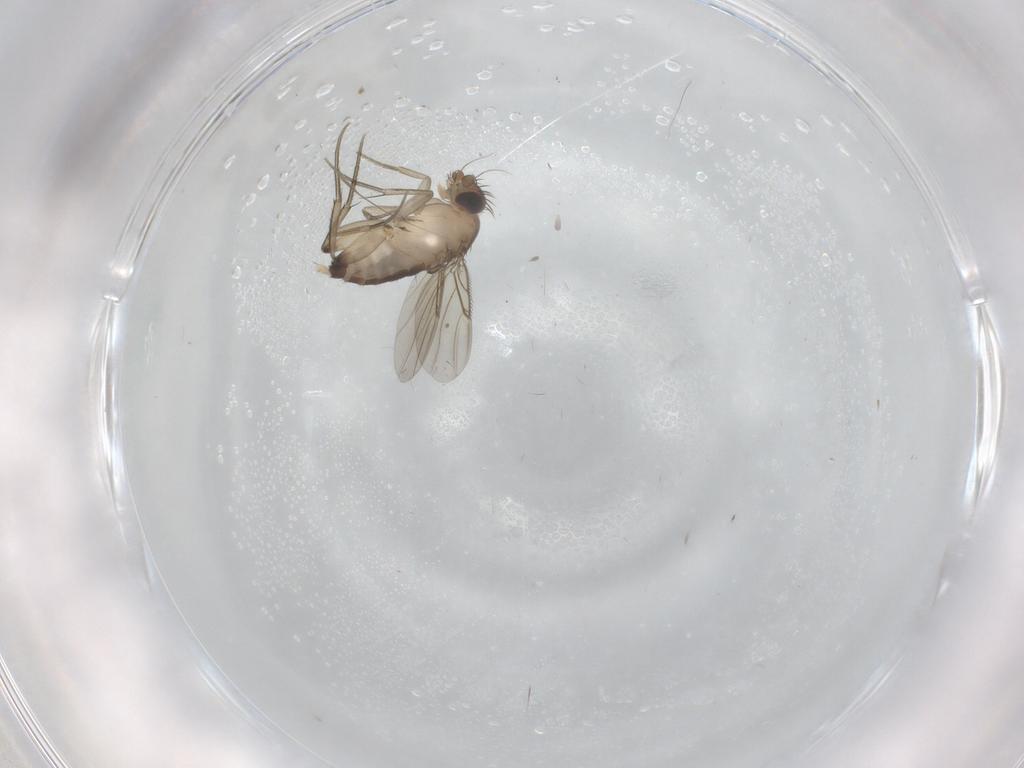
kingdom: Animalia
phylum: Arthropoda
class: Insecta
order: Diptera
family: Phoridae
